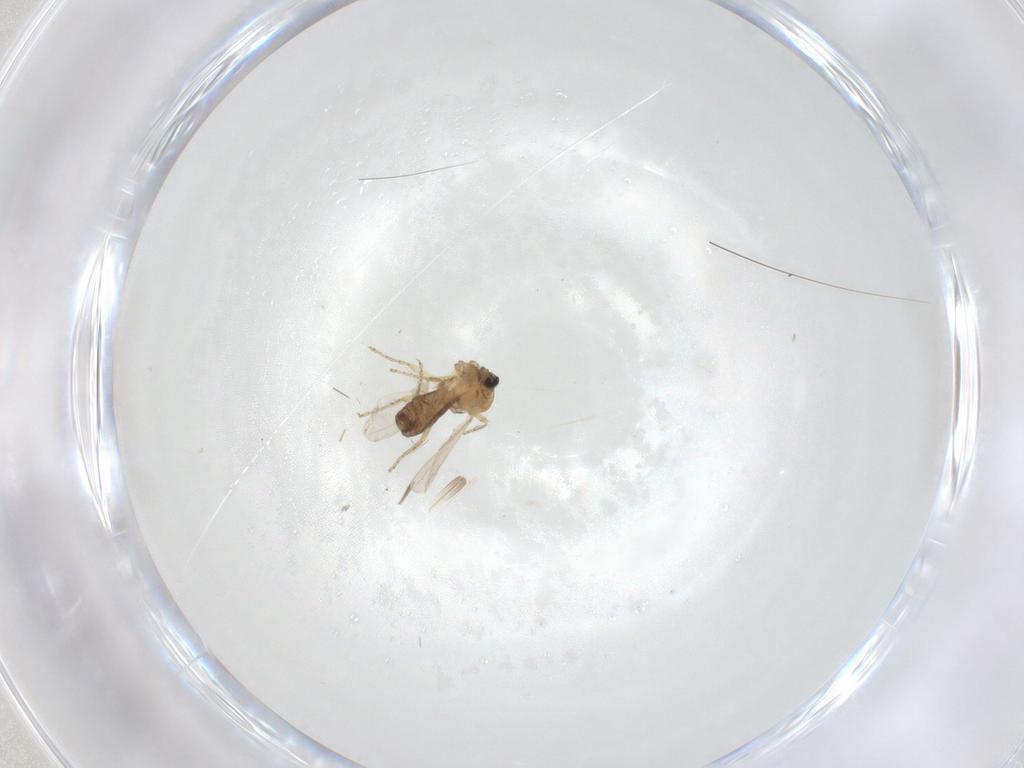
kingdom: Animalia
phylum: Arthropoda
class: Insecta
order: Diptera
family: Ceratopogonidae
